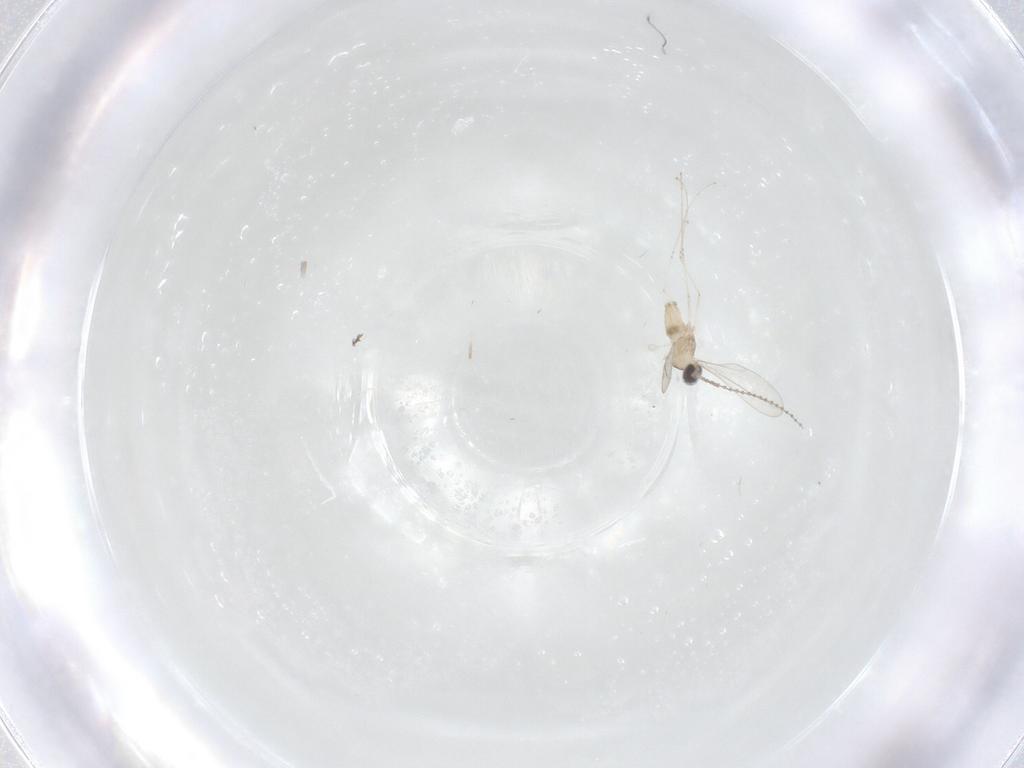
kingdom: Animalia
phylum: Arthropoda
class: Insecta
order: Diptera
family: Cecidomyiidae
